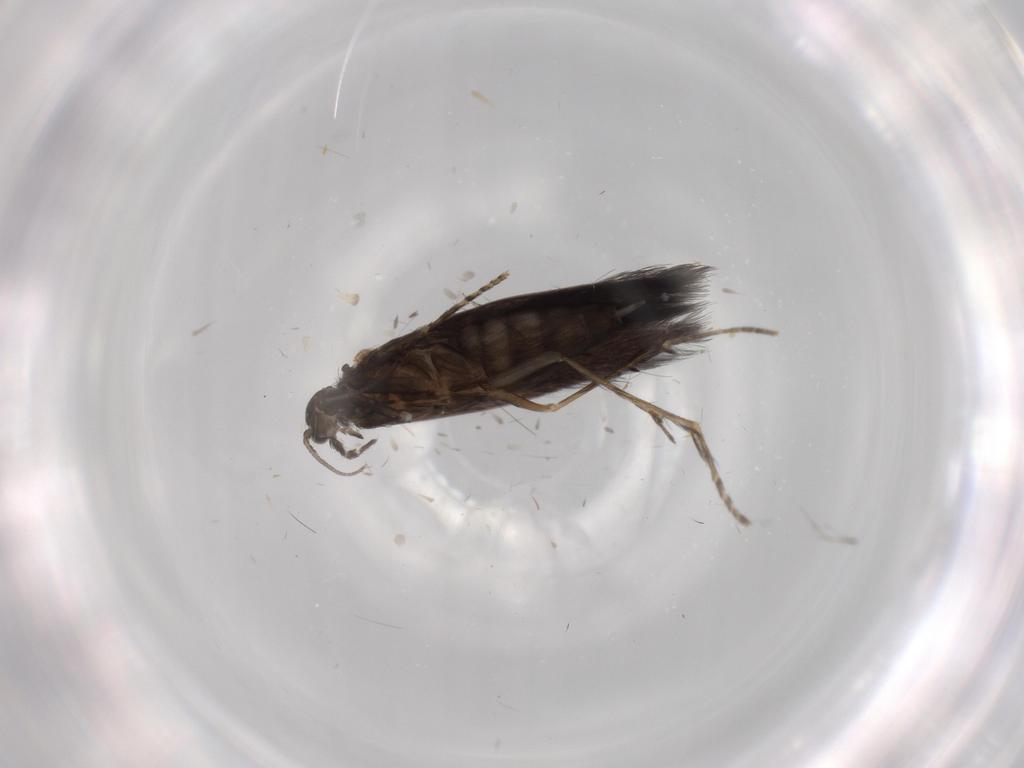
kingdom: Animalia
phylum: Arthropoda
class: Insecta
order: Trichoptera
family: Hydroptilidae
